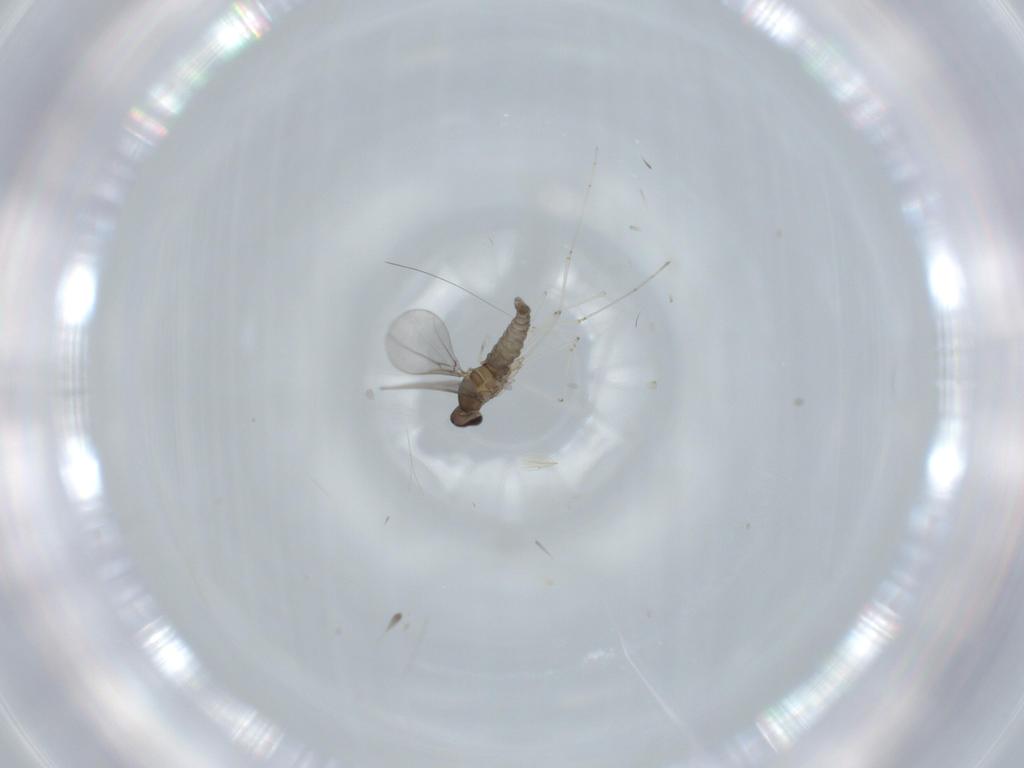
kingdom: Animalia
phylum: Arthropoda
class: Insecta
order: Diptera
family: Cecidomyiidae
